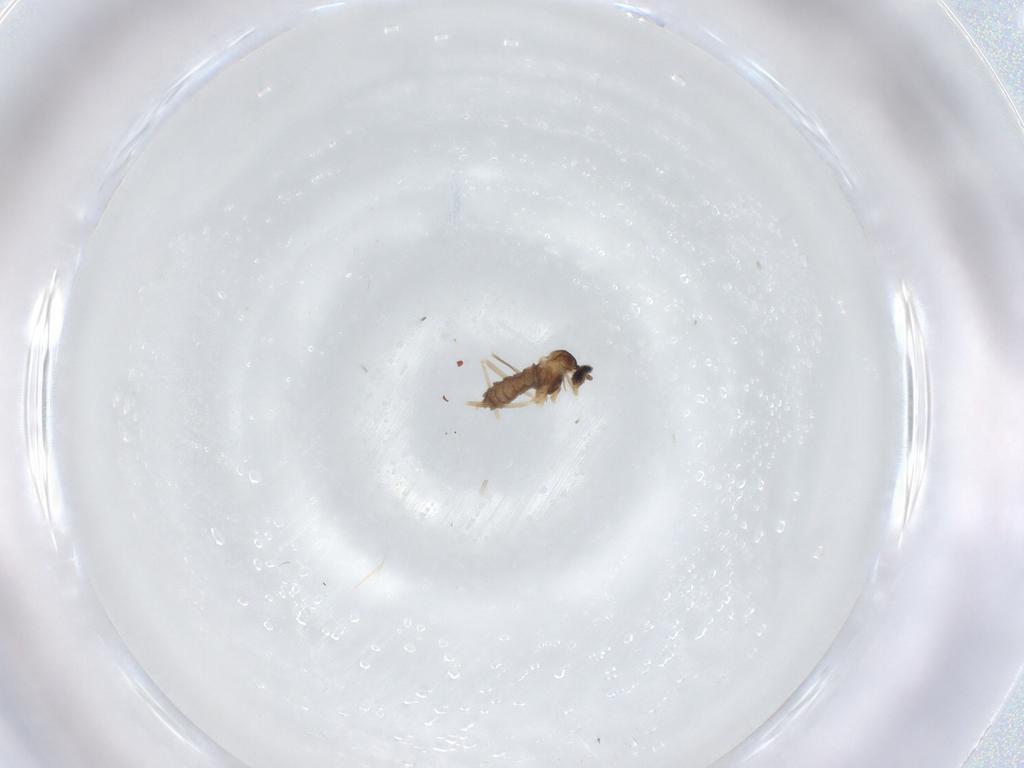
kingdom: Animalia
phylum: Arthropoda
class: Insecta
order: Diptera
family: Cecidomyiidae
